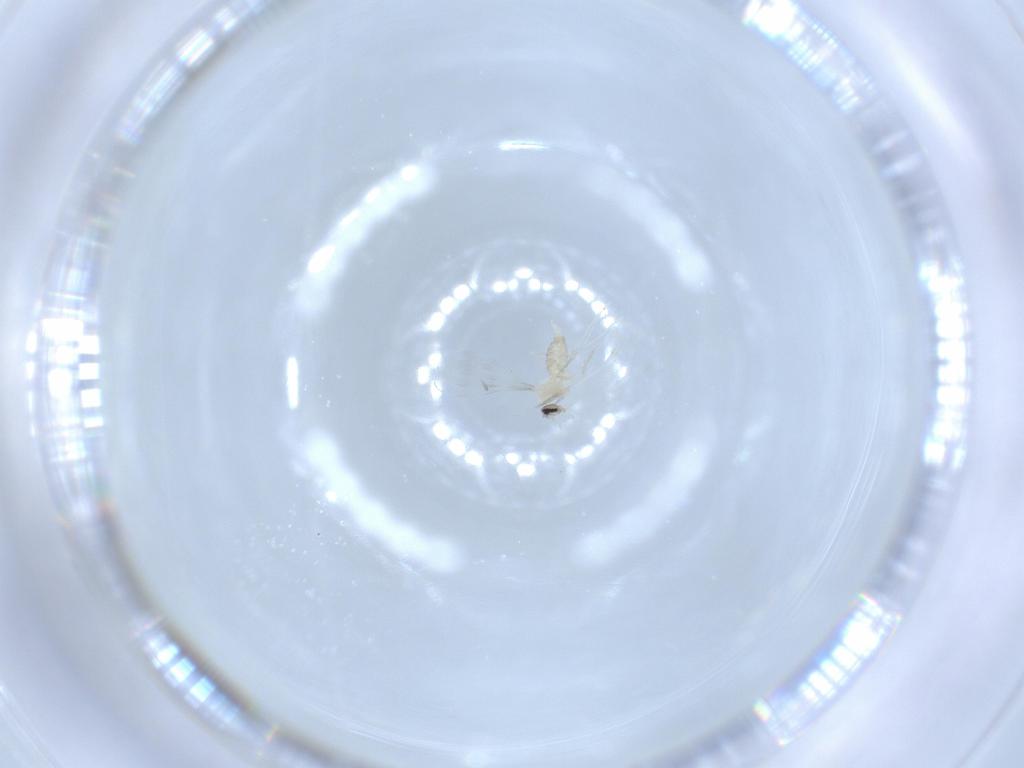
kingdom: Animalia
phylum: Arthropoda
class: Insecta
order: Diptera
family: Cecidomyiidae
